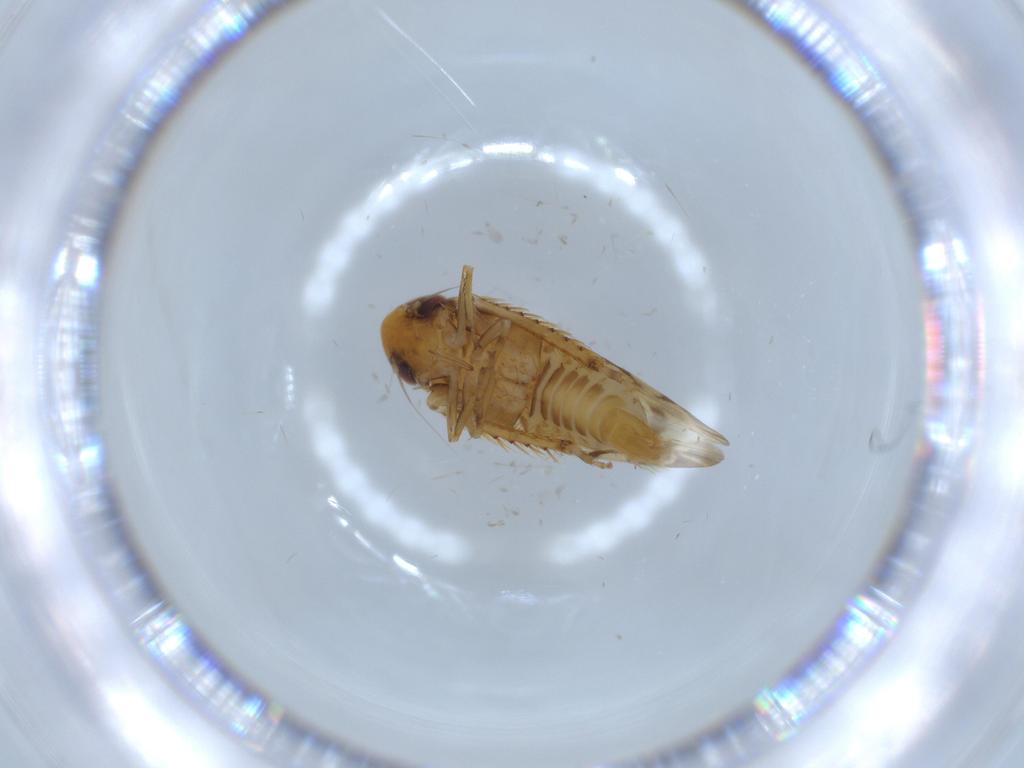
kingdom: Animalia
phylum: Arthropoda
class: Insecta
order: Hemiptera
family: Cicadellidae
